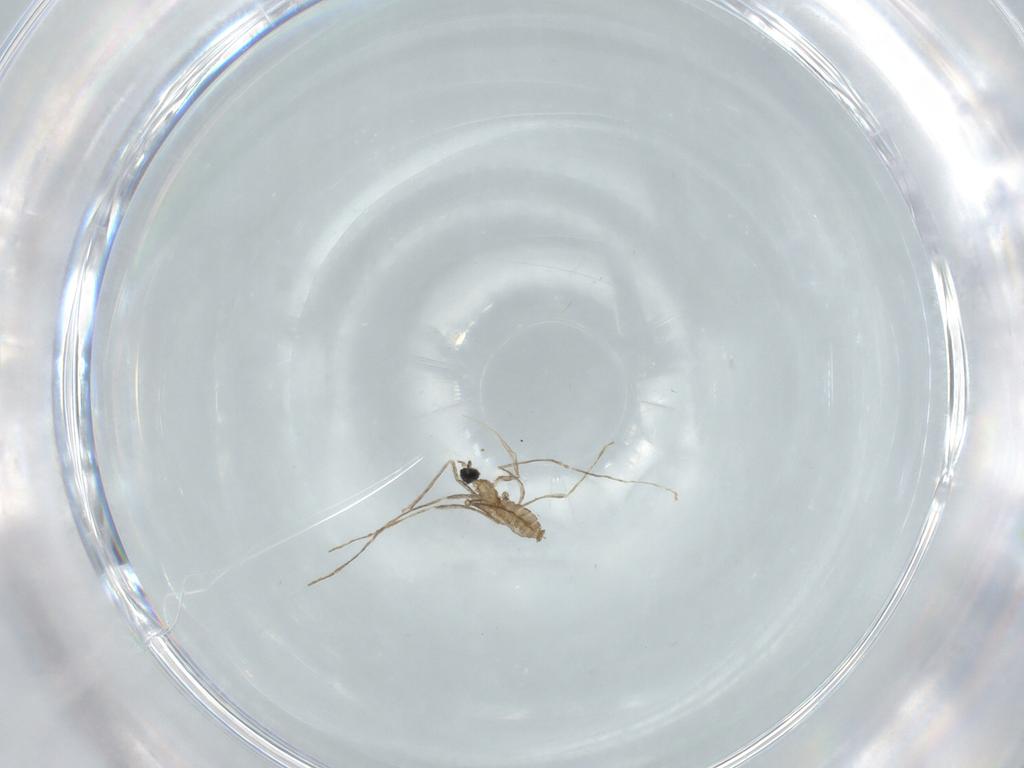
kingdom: Animalia
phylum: Arthropoda
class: Insecta
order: Diptera
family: Cecidomyiidae
